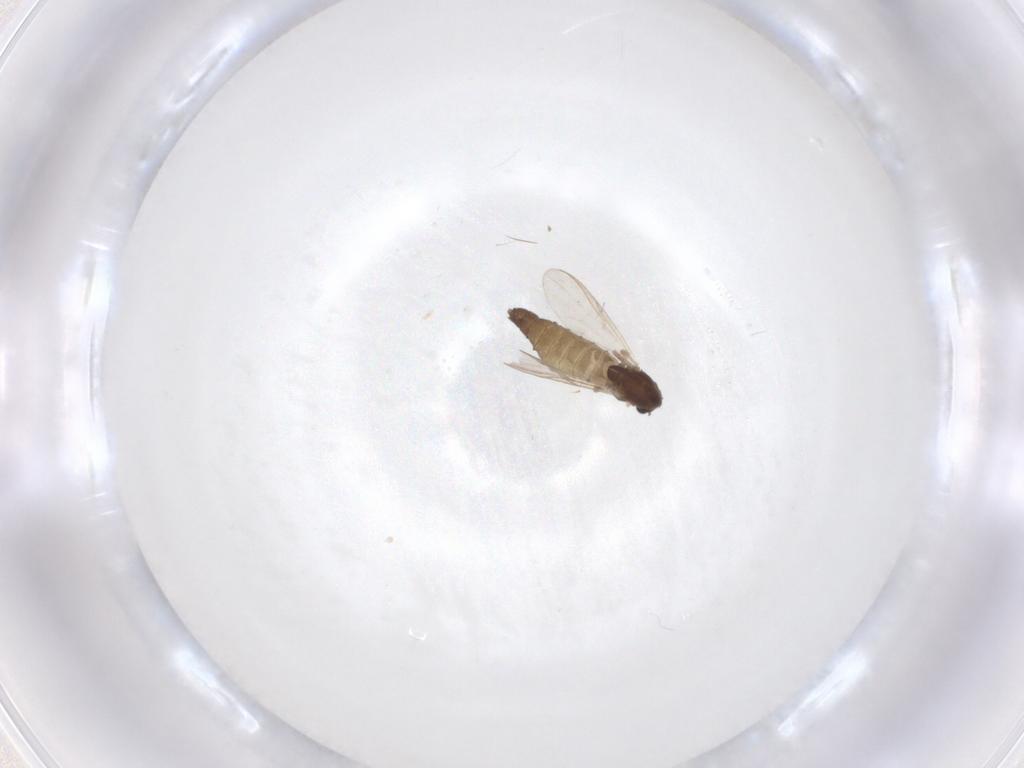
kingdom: Animalia
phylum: Arthropoda
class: Insecta
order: Diptera
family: Chironomidae
